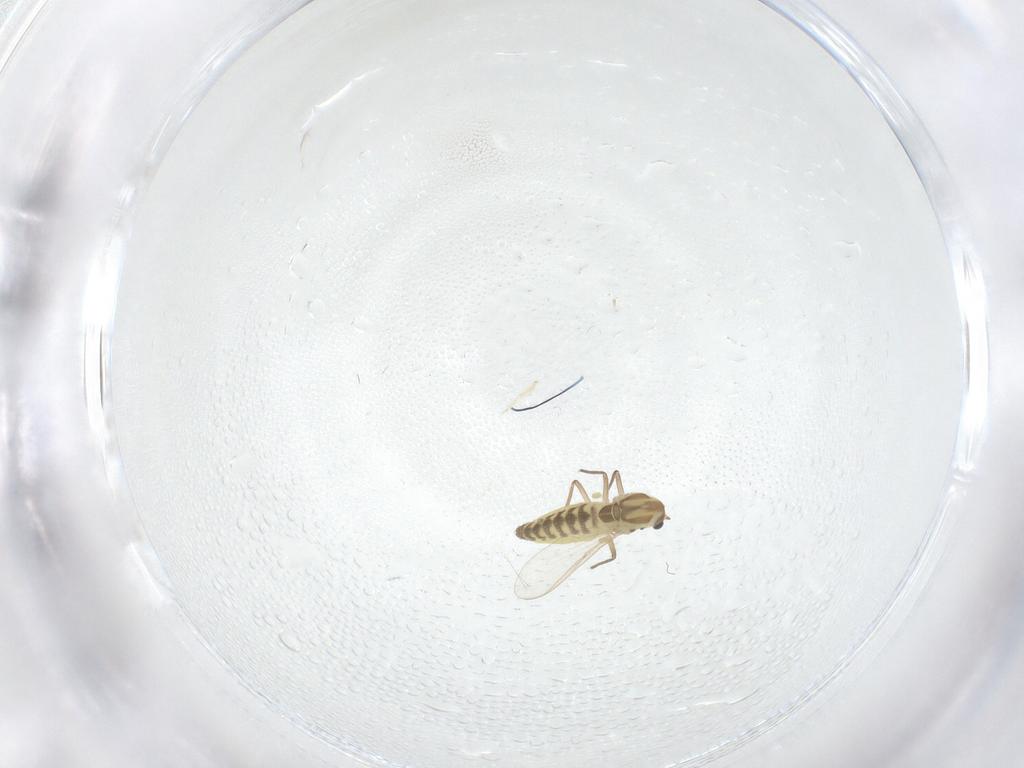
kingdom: Animalia
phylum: Arthropoda
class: Insecta
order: Diptera
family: Chironomidae
